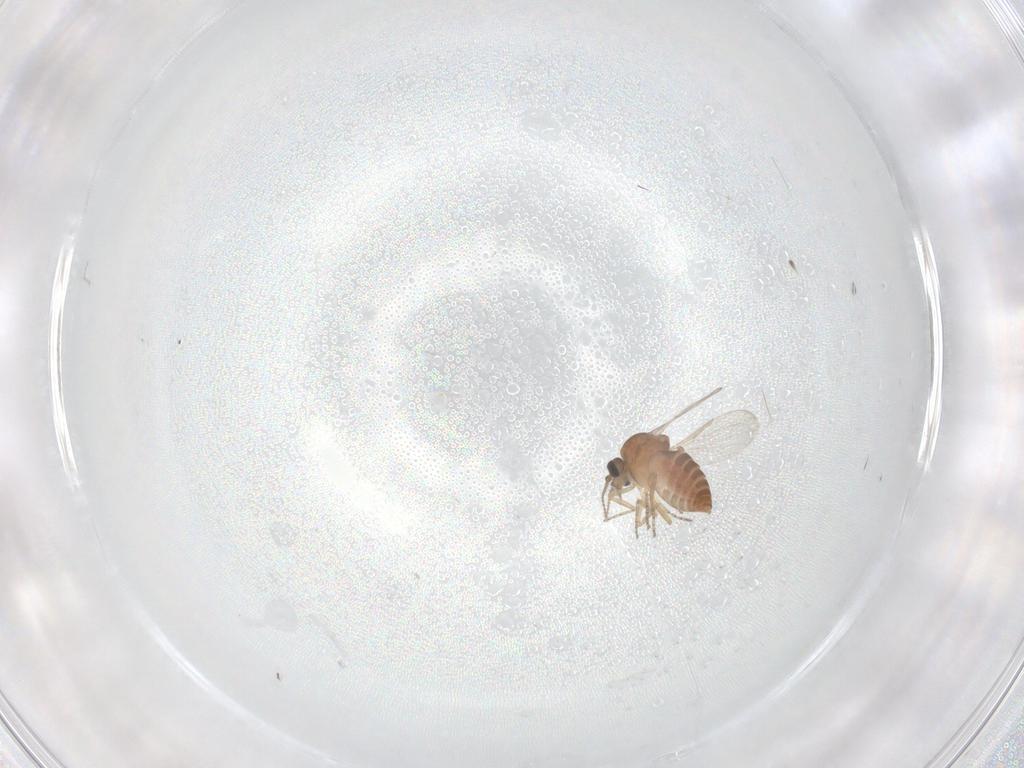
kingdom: Animalia
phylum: Arthropoda
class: Insecta
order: Diptera
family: Ceratopogonidae
